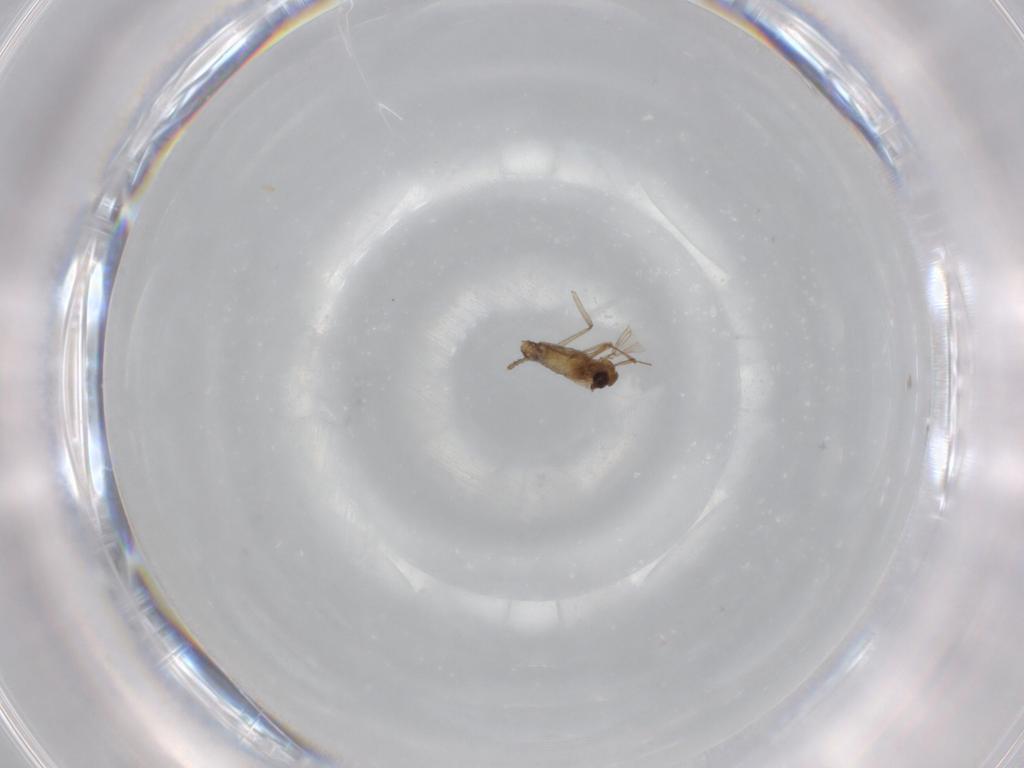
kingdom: Animalia
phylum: Arthropoda
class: Insecta
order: Diptera
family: Chironomidae
